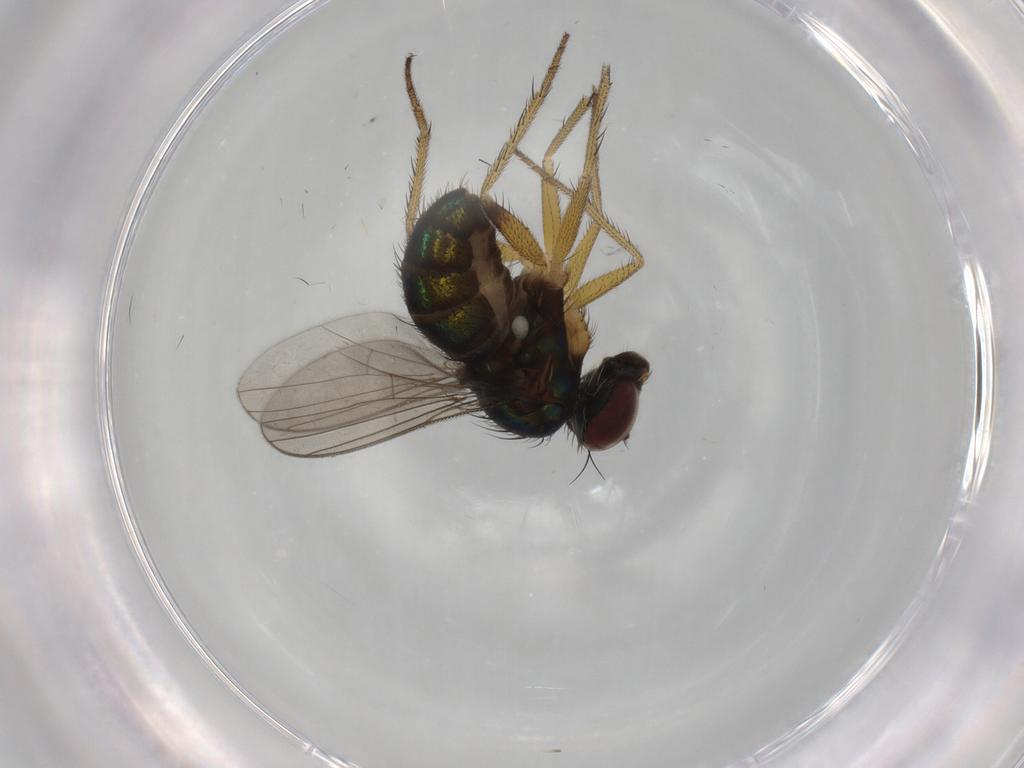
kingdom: Animalia
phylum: Arthropoda
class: Insecta
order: Diptera
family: Dolichopodidae
